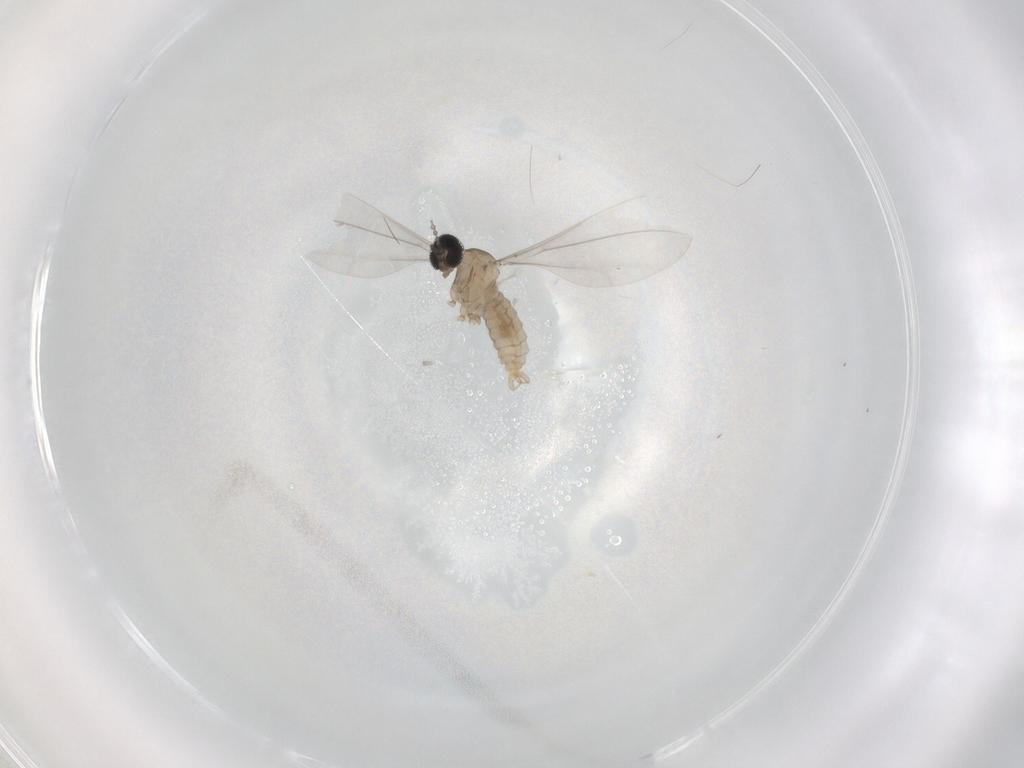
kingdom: Animalia
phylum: Arthropoda
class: Insecta
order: Diptera
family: Cecidomyiidae
